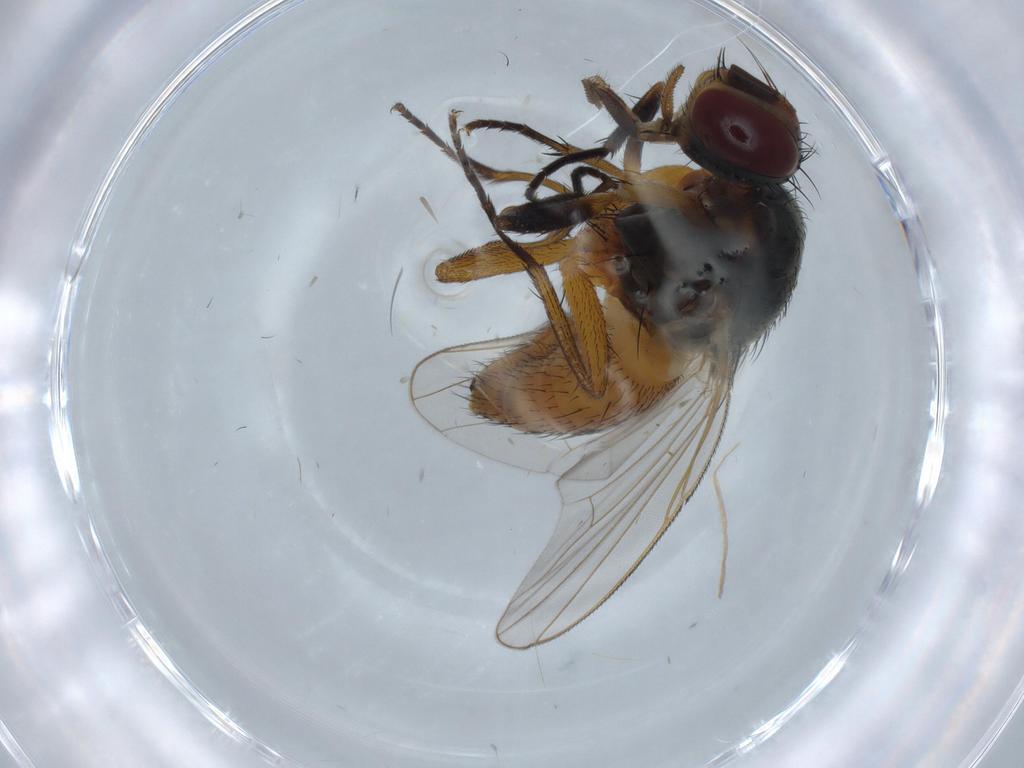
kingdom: Animalia
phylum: Arthropoda
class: Insecta
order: Diptera
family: Muscidae
